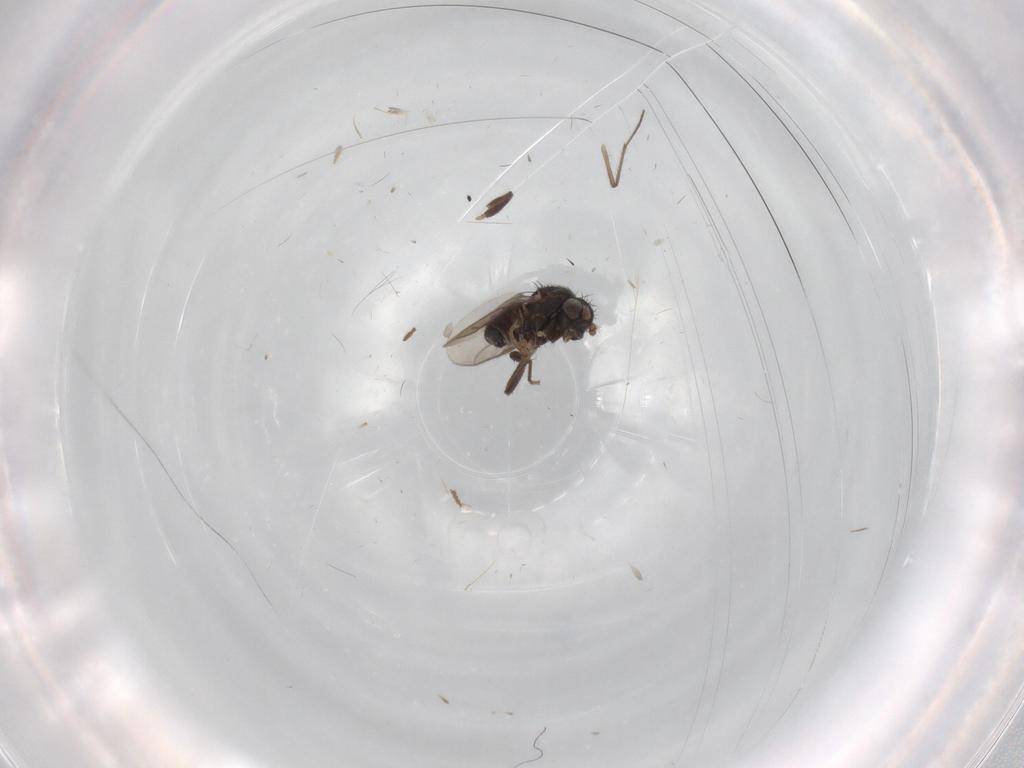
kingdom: Animalia
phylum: Arthropoda
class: Insecta
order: Diptera
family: Sphaeroceridae
